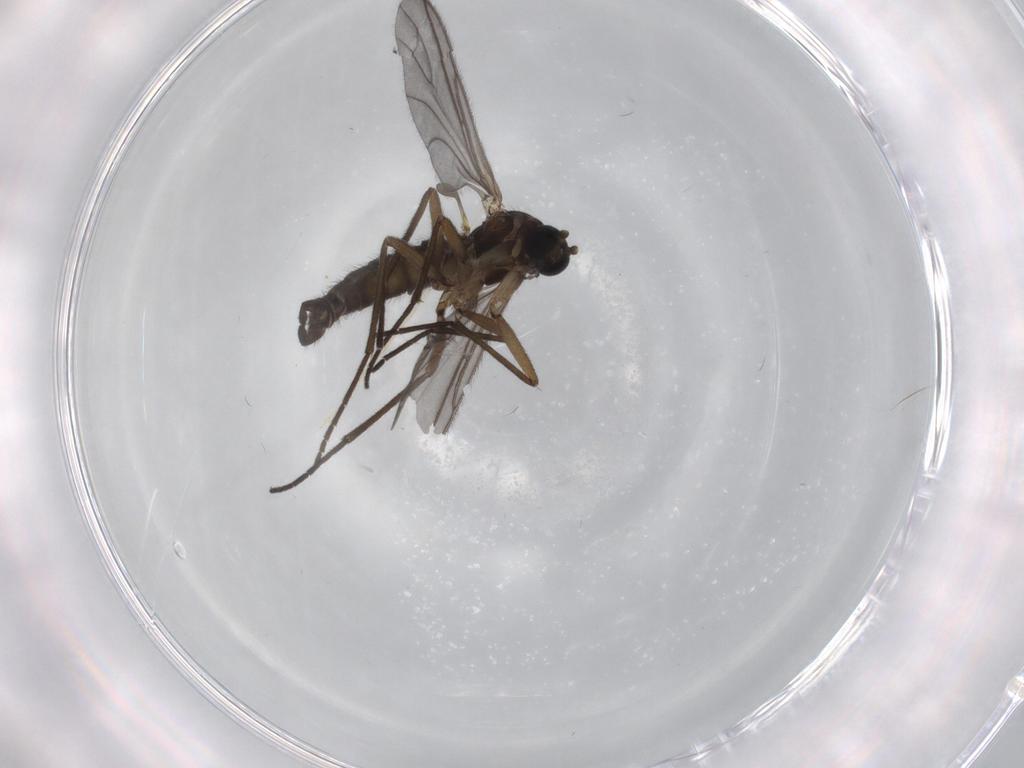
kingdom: Animalia
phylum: Arthropoda
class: Insecta
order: Diptera
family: Sciaridae
